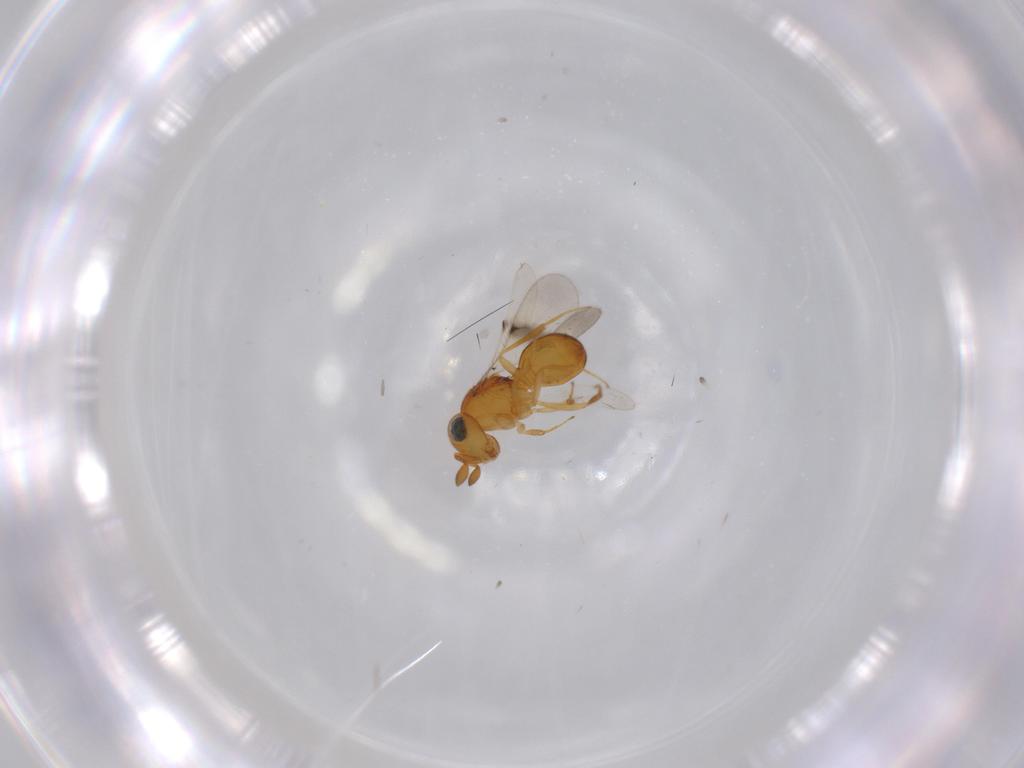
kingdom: Animalia
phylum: Arthropoda
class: Insecta
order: Hymenoptera
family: Scelionidae
